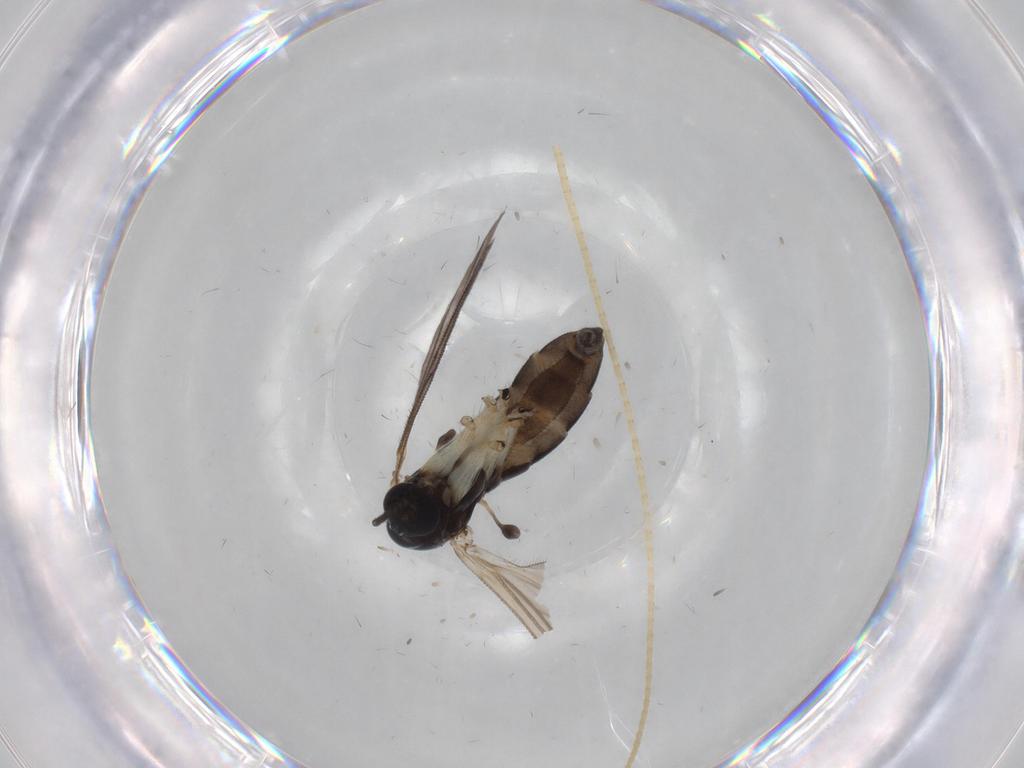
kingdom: Animalia
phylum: Arthropoda
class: Insecta
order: Diptera
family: Sciaridae
